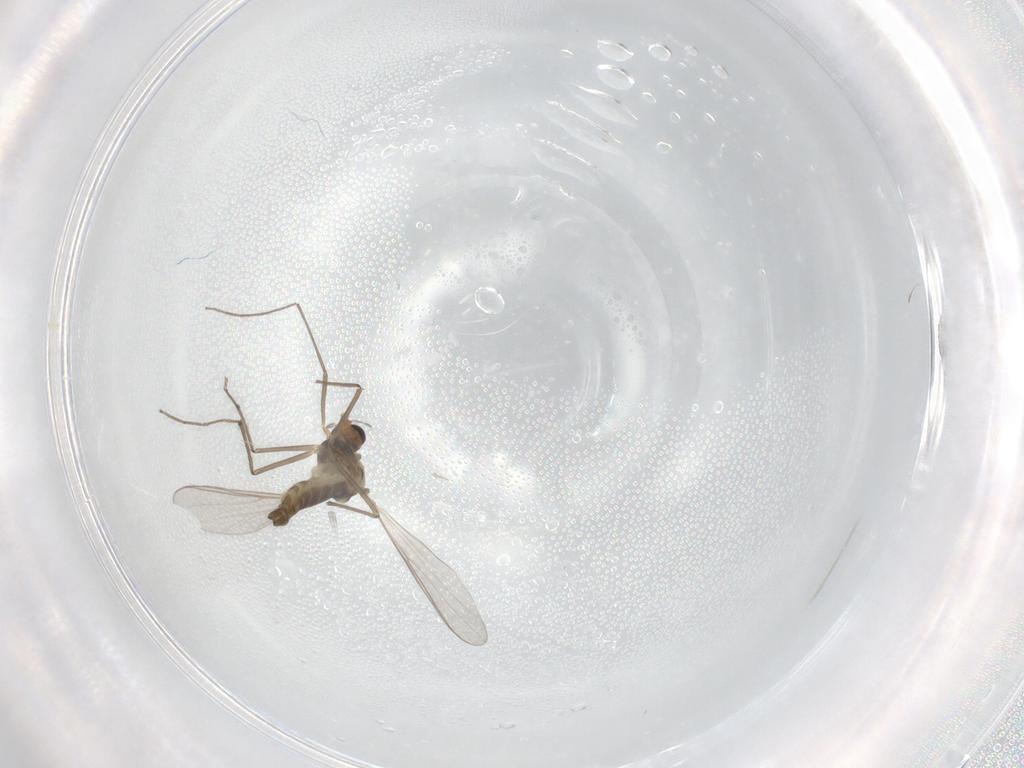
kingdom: Animalia
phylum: Arthropoda
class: Insecta
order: Diptera
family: Chironomidae
